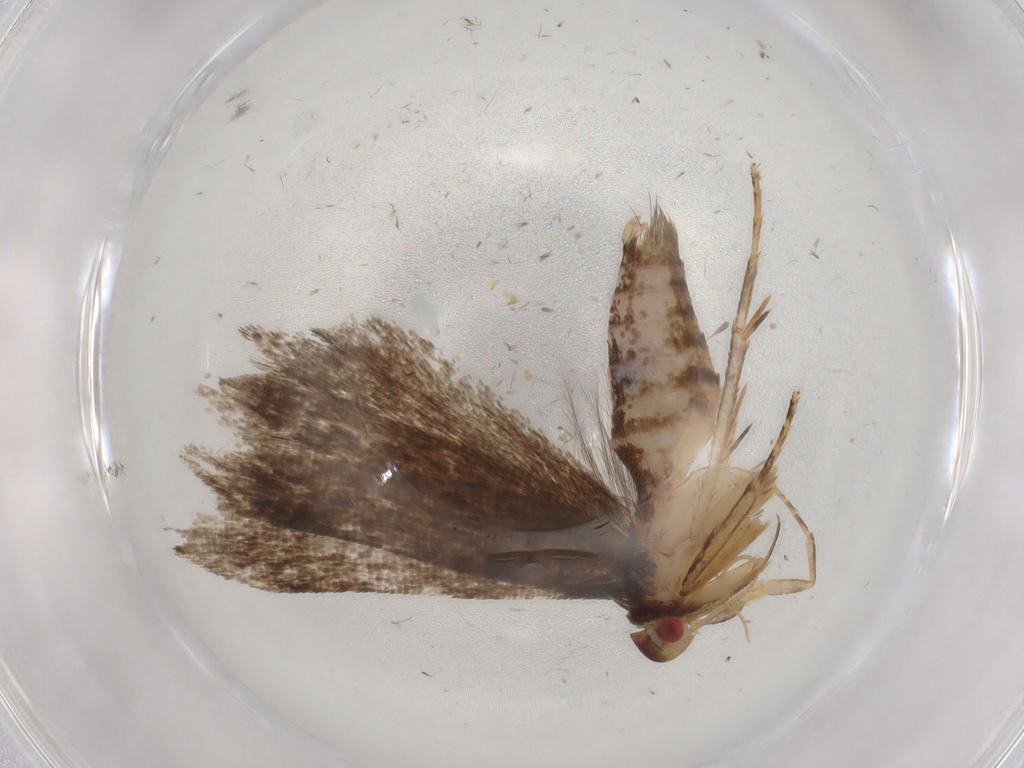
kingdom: Animalia
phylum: Arthropoda
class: Insecta
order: Lepidoptera
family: Gelechiidae
